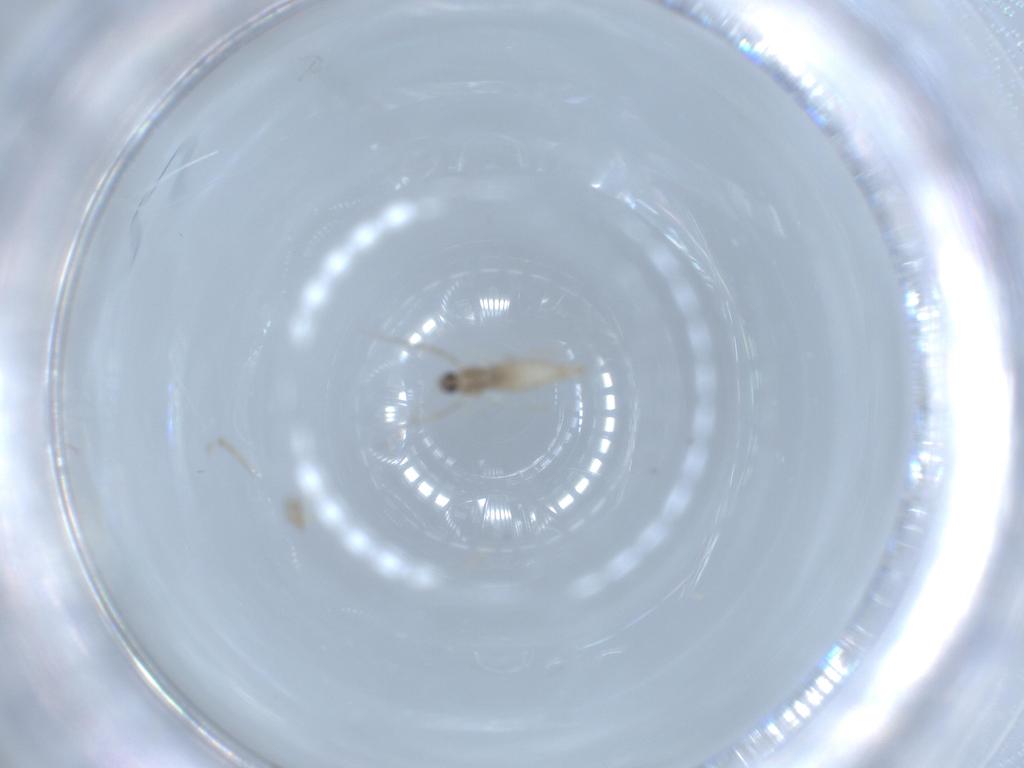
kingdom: Animalia
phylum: Arthropoda
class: Insecta
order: Diptera
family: Cecidomyiidae
